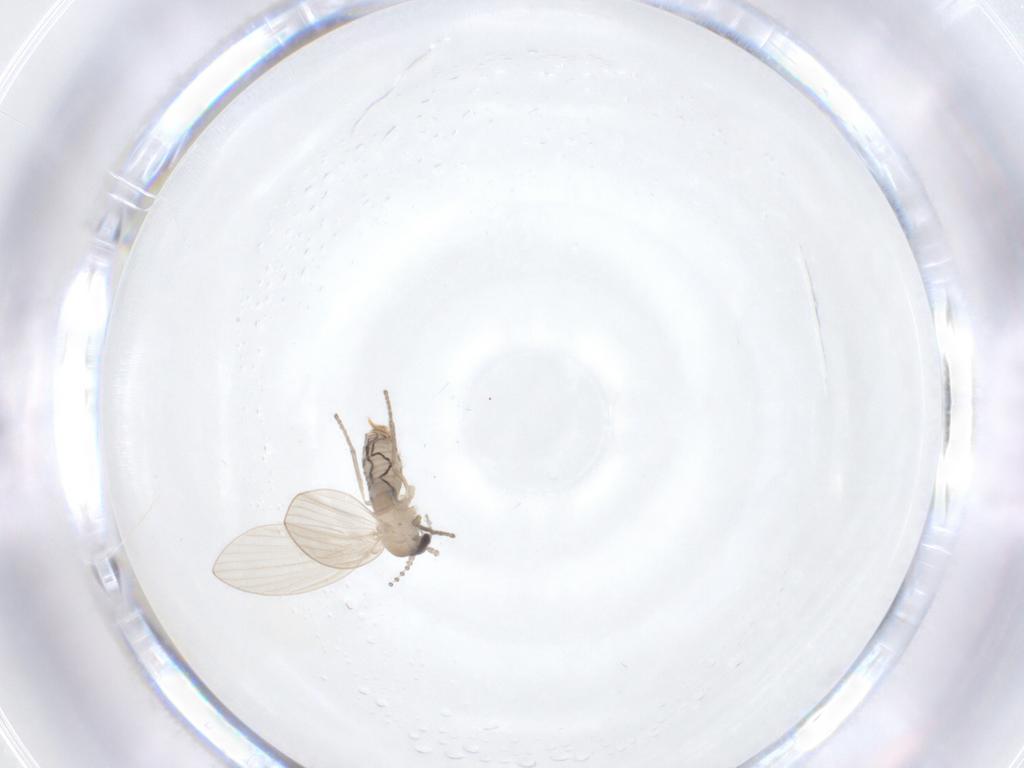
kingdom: Animalia
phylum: Arthropoda
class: Insecta
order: Diptera
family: Psychodidae
